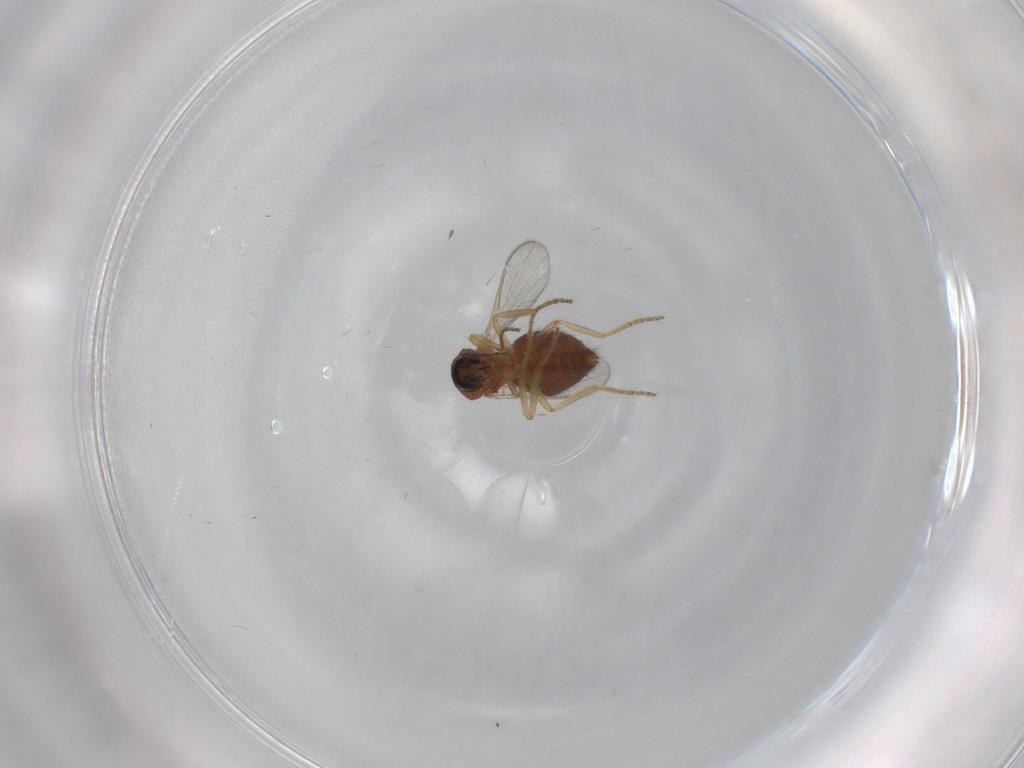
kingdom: Animalia
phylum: Arthropoda
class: Insecta
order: Diptera
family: Ceratopogonidae
